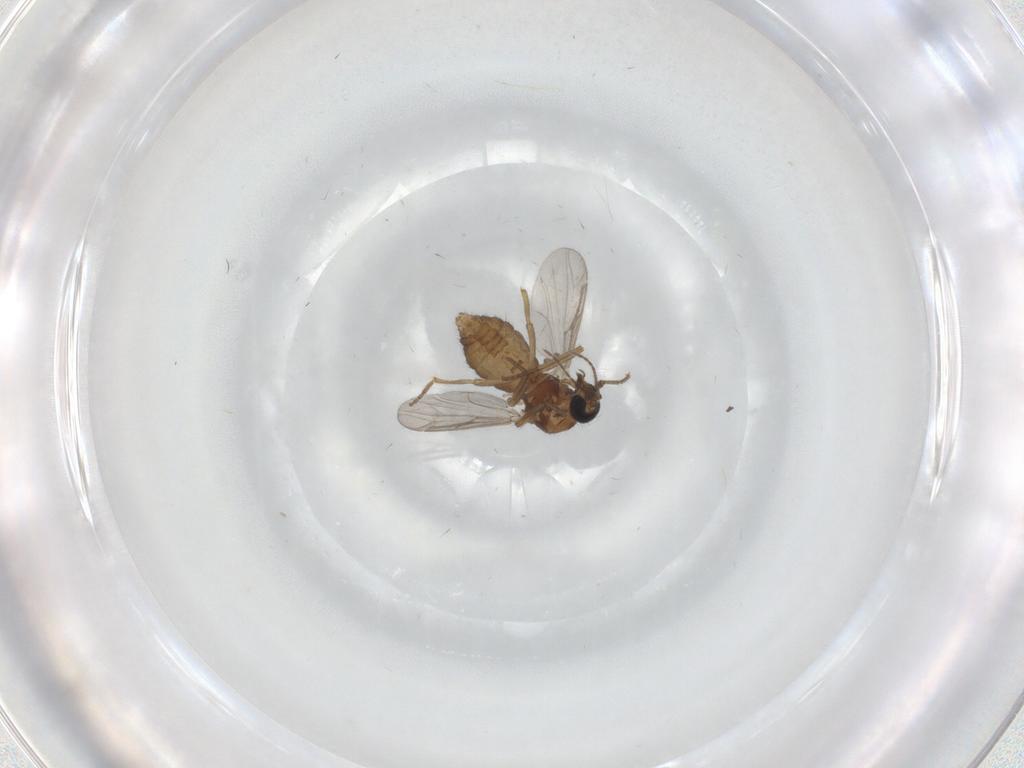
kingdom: Animalia
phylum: Arthropoda
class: Insecta
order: Diptera
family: Ceratopogonidae
